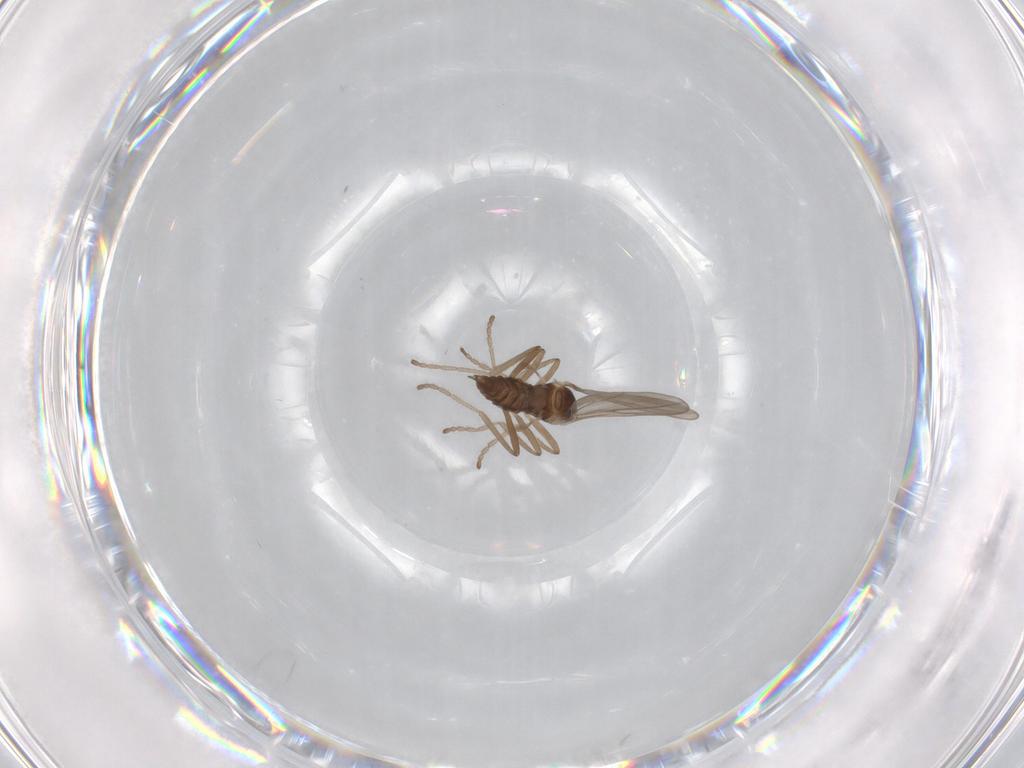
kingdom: Animalia
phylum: Arthropoda
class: Insecta
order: Diptera
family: Cecidomyiidae
